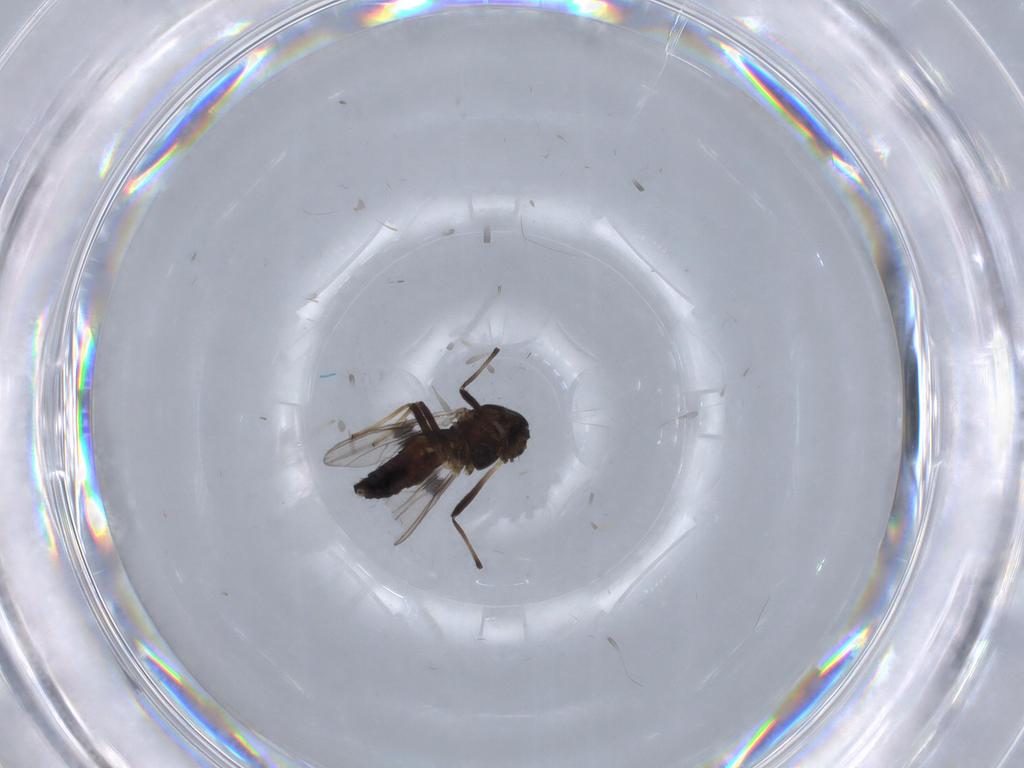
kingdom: Animalia
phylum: Arthropoda
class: Insecta
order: Diptera
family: Chironomidae
